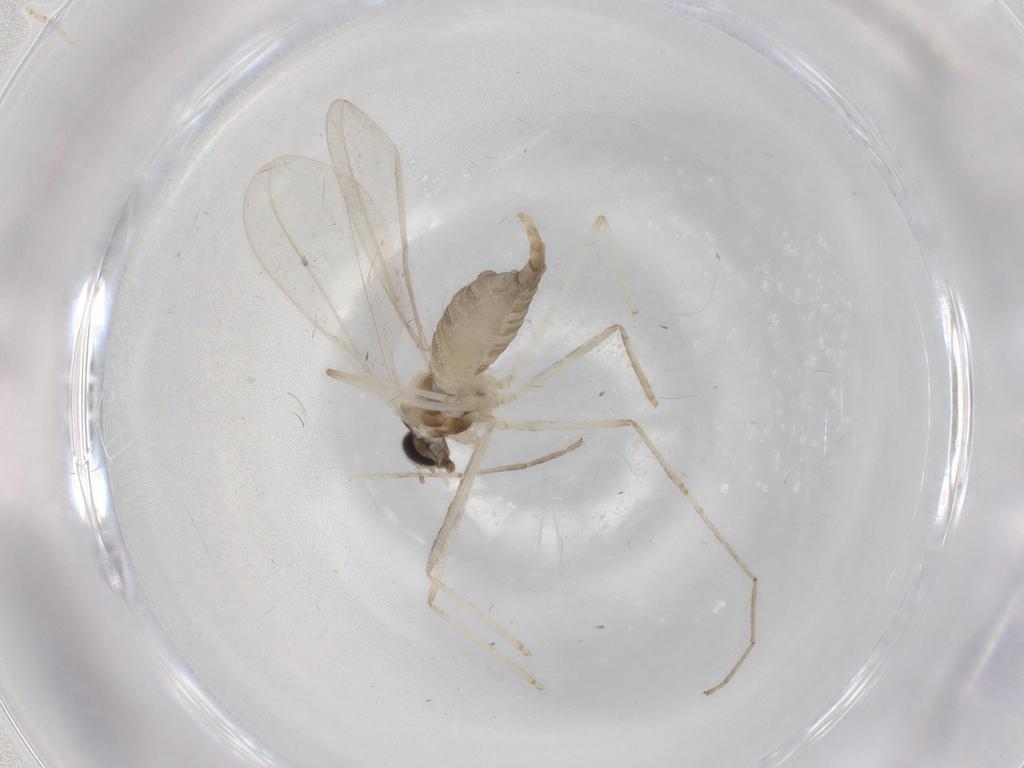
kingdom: Animalia
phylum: Arthropoda
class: Insecta
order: Diptera
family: Cecidomyiidae
